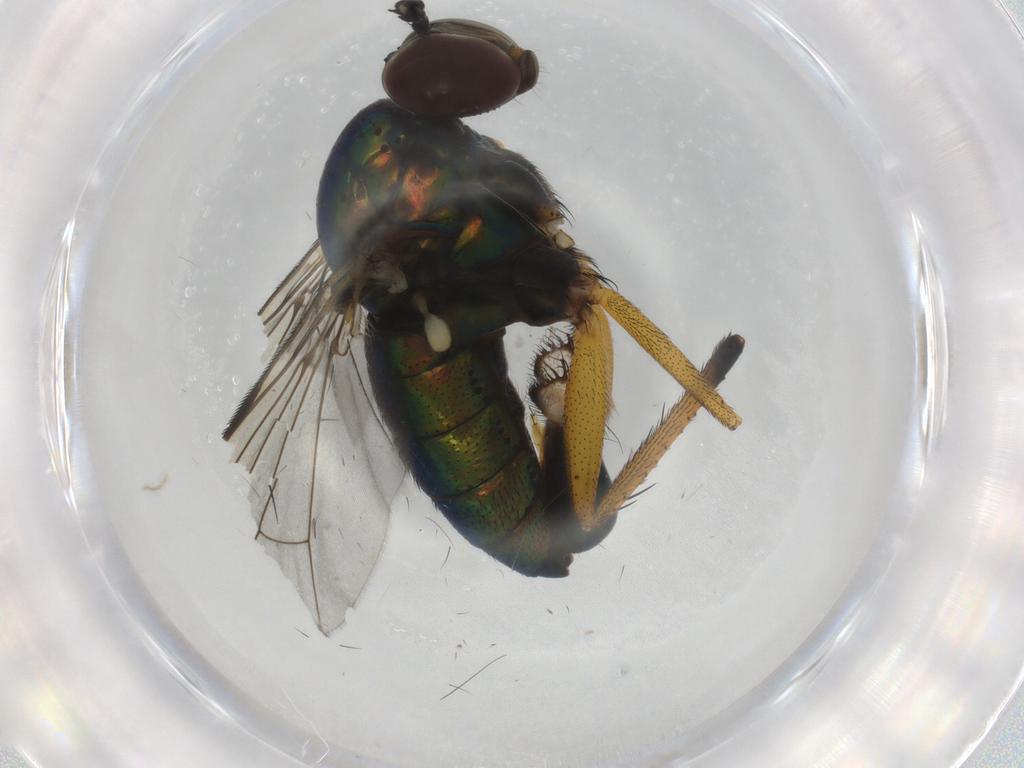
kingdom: Animalia
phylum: Arthropoda
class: Insecta
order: Diptera
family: Dolichopodidae
